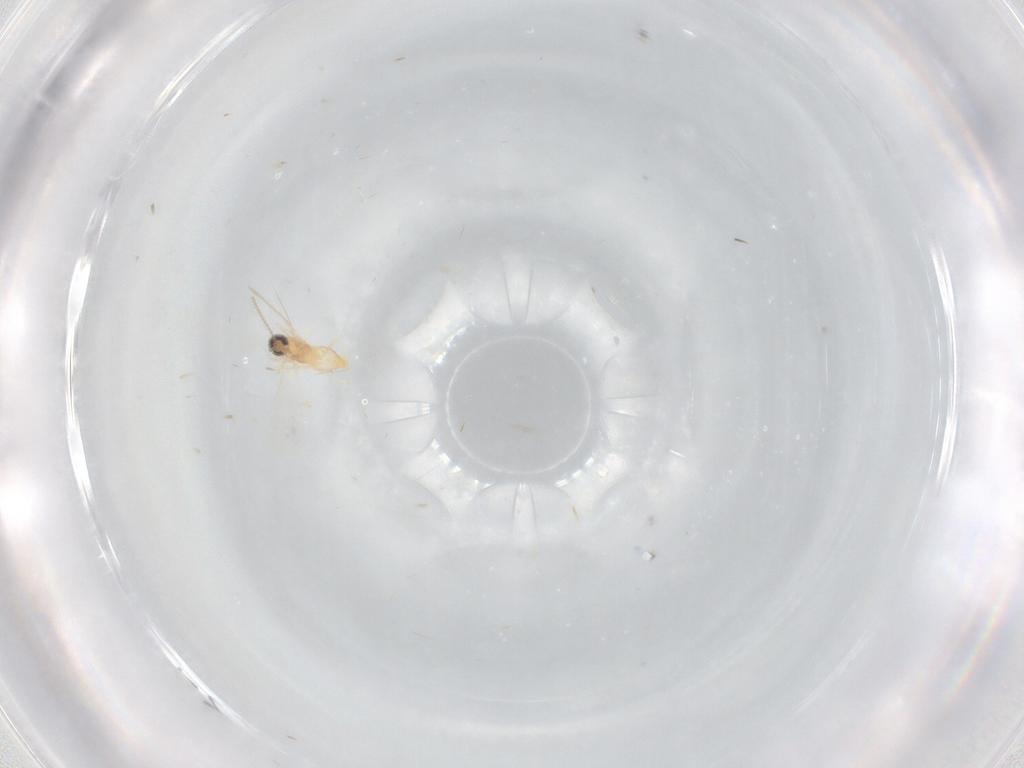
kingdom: Animalia
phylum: Arthropoda
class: Insecta
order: Diptera
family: Cecidomyiidae
